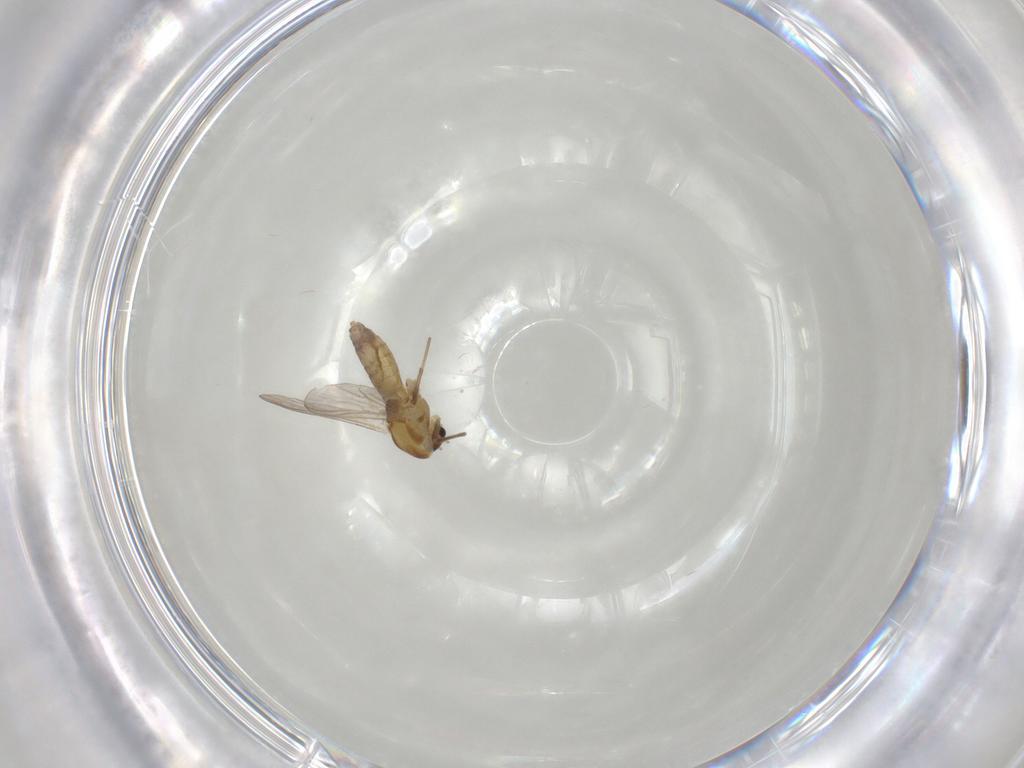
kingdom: Animalia
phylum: Arthropoda
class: Insecta
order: Diptera
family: Chironomidae
